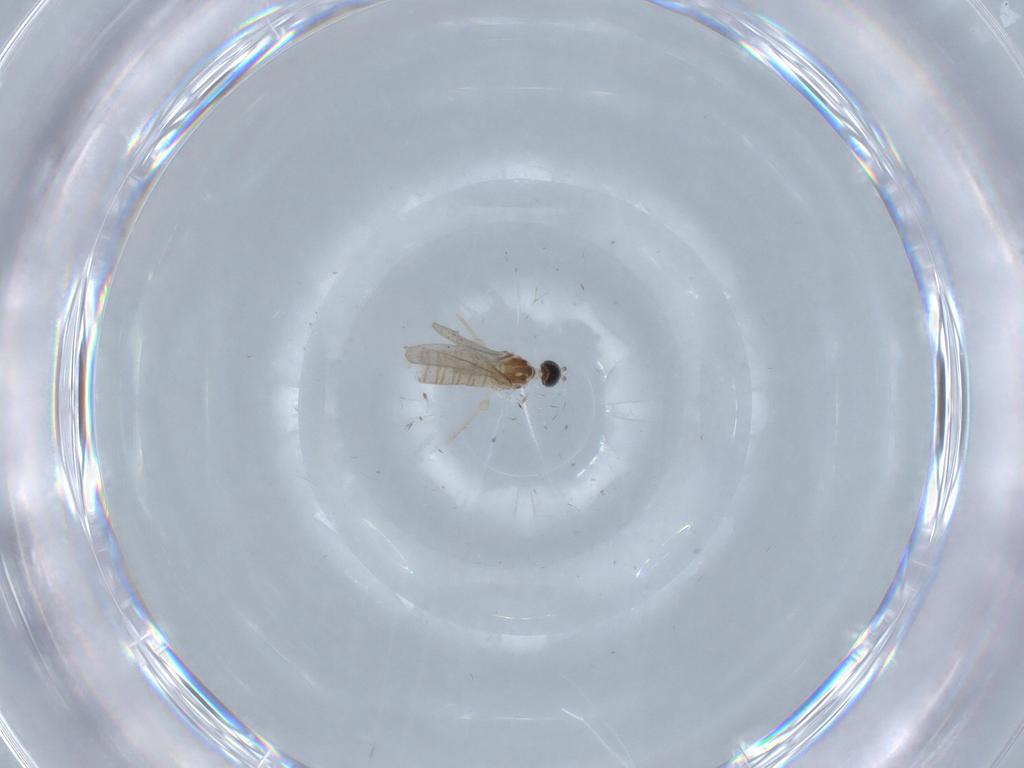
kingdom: Animalia
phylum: Arthropoda
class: Insecta
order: Diptera
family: Cecidomyiidae
